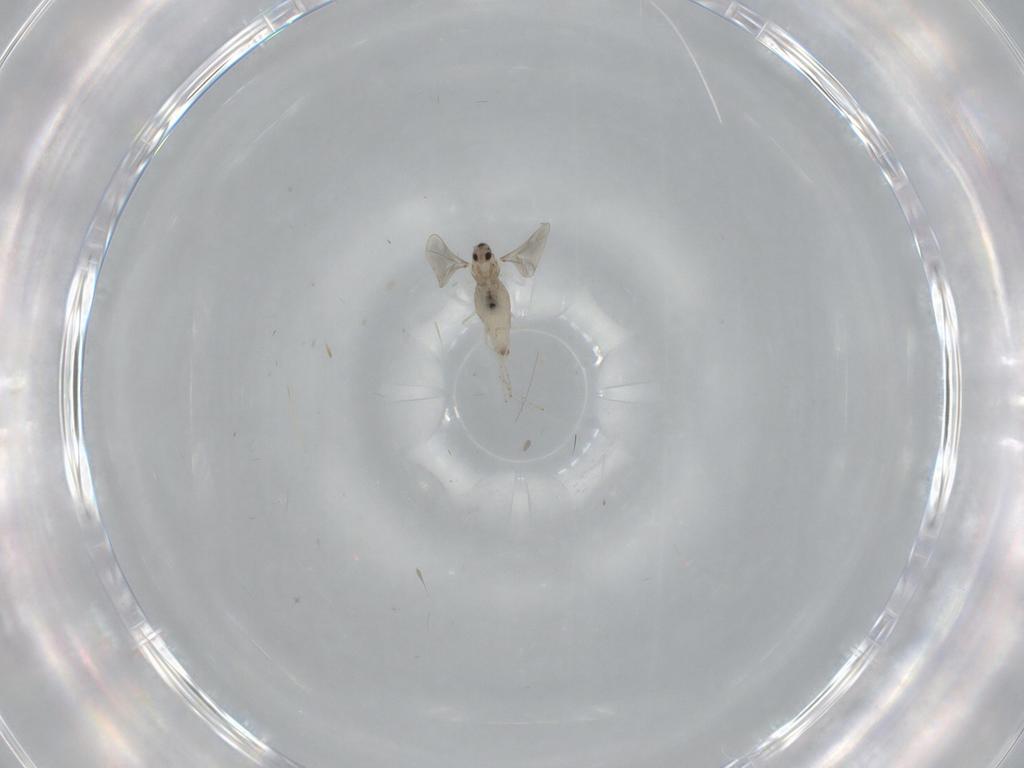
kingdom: Animalia
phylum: Arthropoda
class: Insecta
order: Diptera
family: Cecidomyiidae
